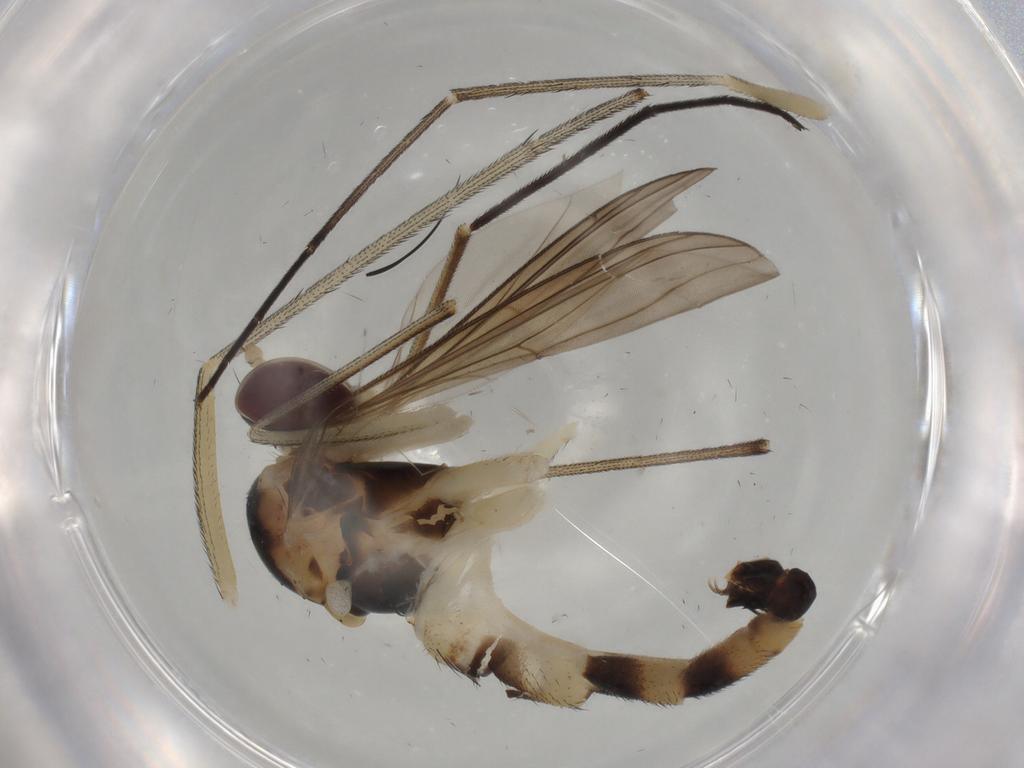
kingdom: Animalia
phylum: Arthropoda
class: Insecta
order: Diptera
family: Sciaridae
